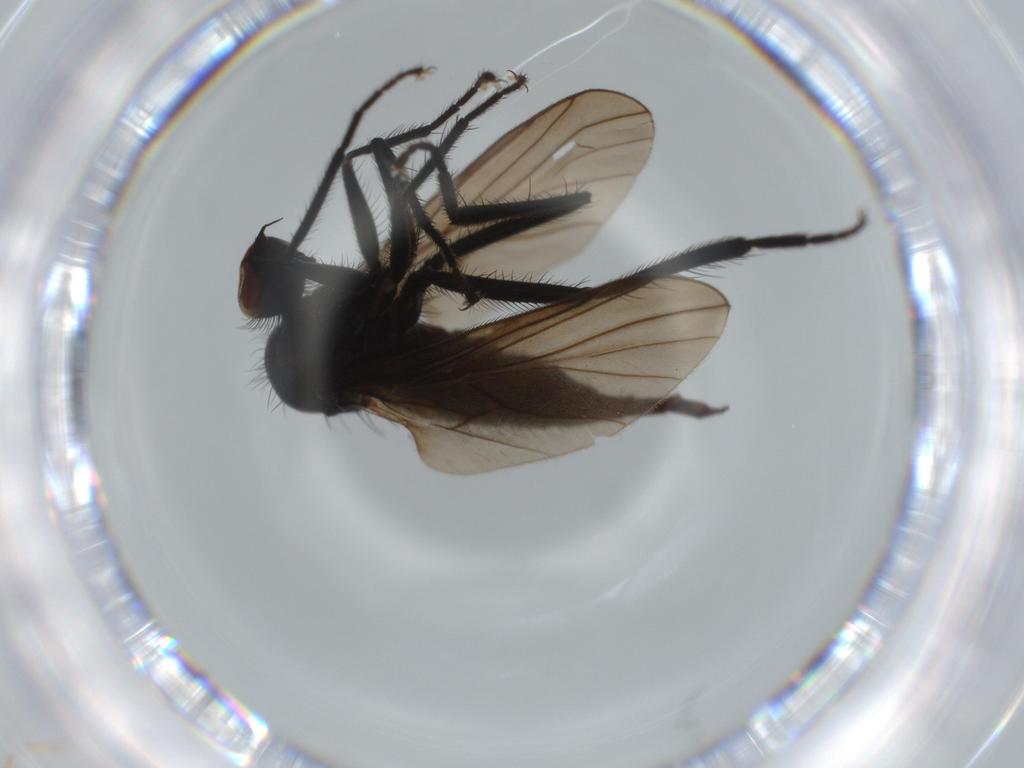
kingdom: Animalia
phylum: Arthropoda
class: Insecta
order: Diptera
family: Hybotidae
